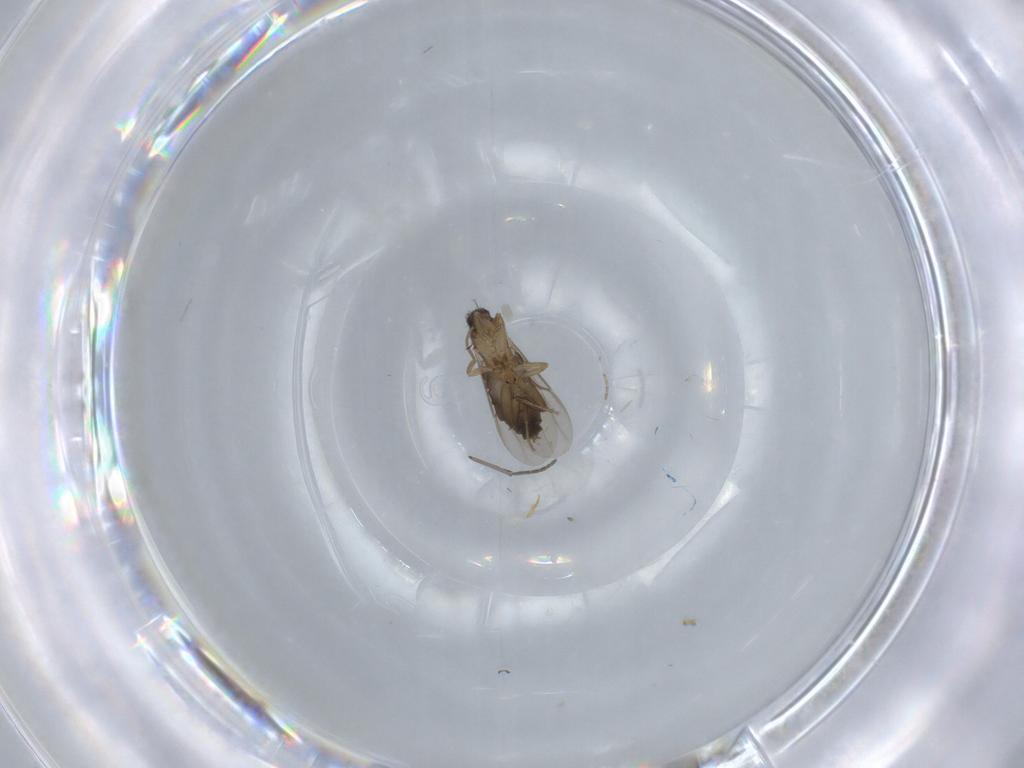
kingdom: Animalia
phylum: Arthropoda
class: Insecta
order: Diptera
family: Phoridae
